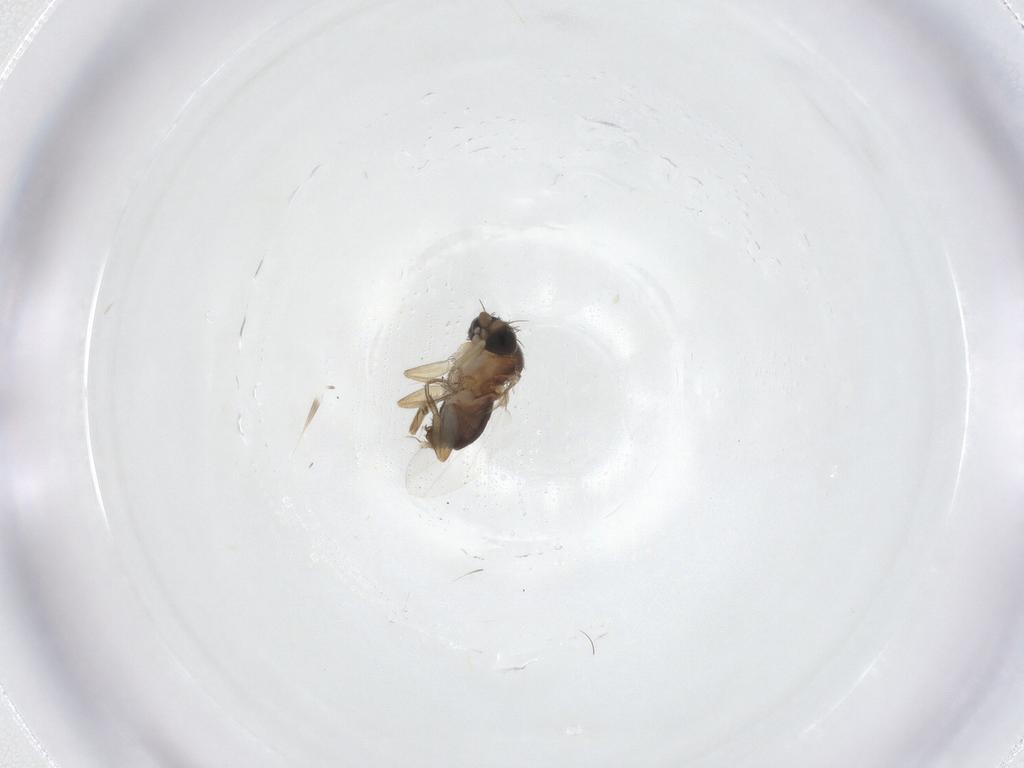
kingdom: Animalia
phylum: Arthropoda
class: Insecta
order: Diptera
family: Phoridae
